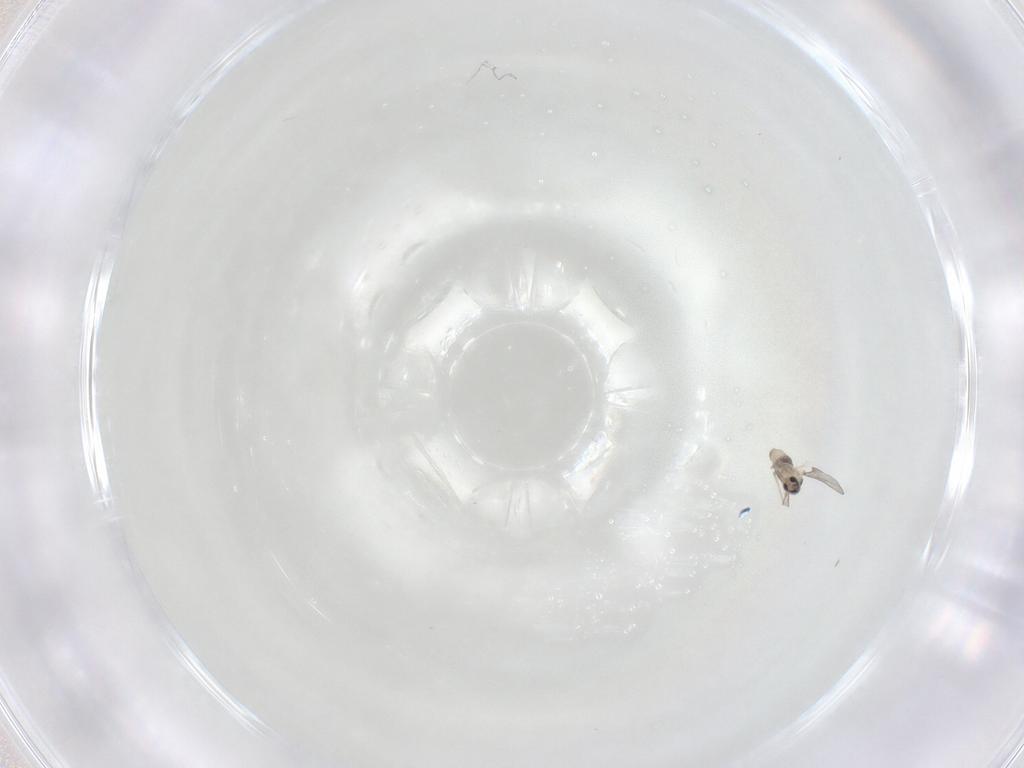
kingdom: Animalia
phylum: Arthropoda
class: Insecta
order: Diptera
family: Cecidomyiidae
